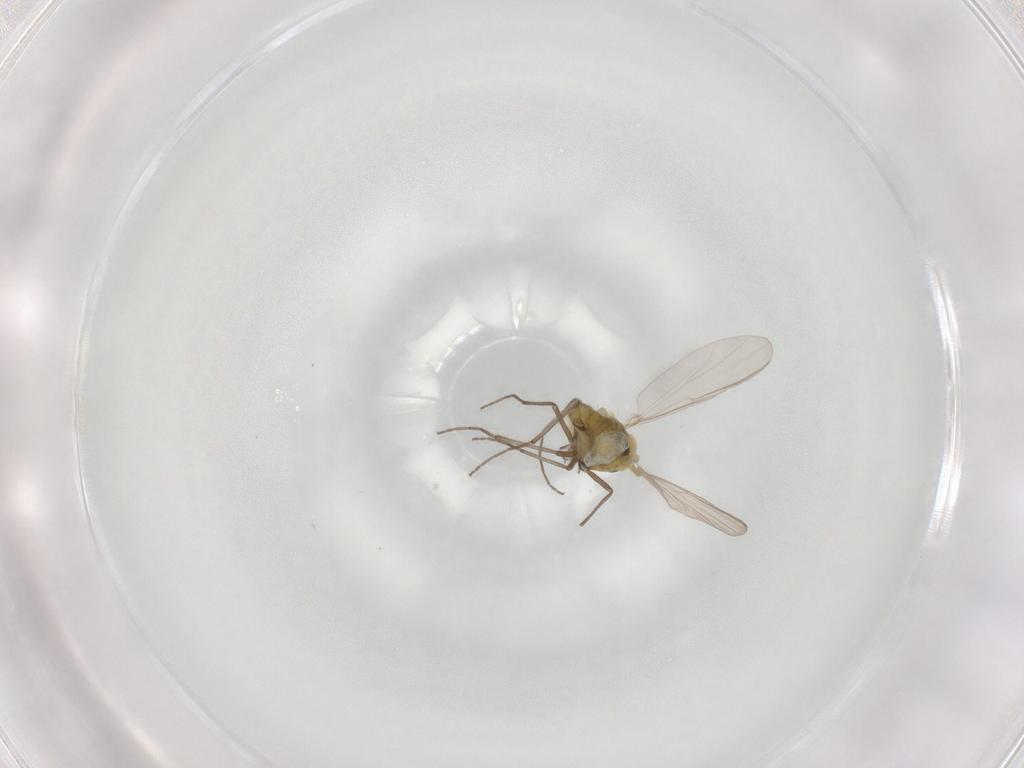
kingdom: Animalia
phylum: Arthropoda
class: Insecta
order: Diptera
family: Chironomidae
